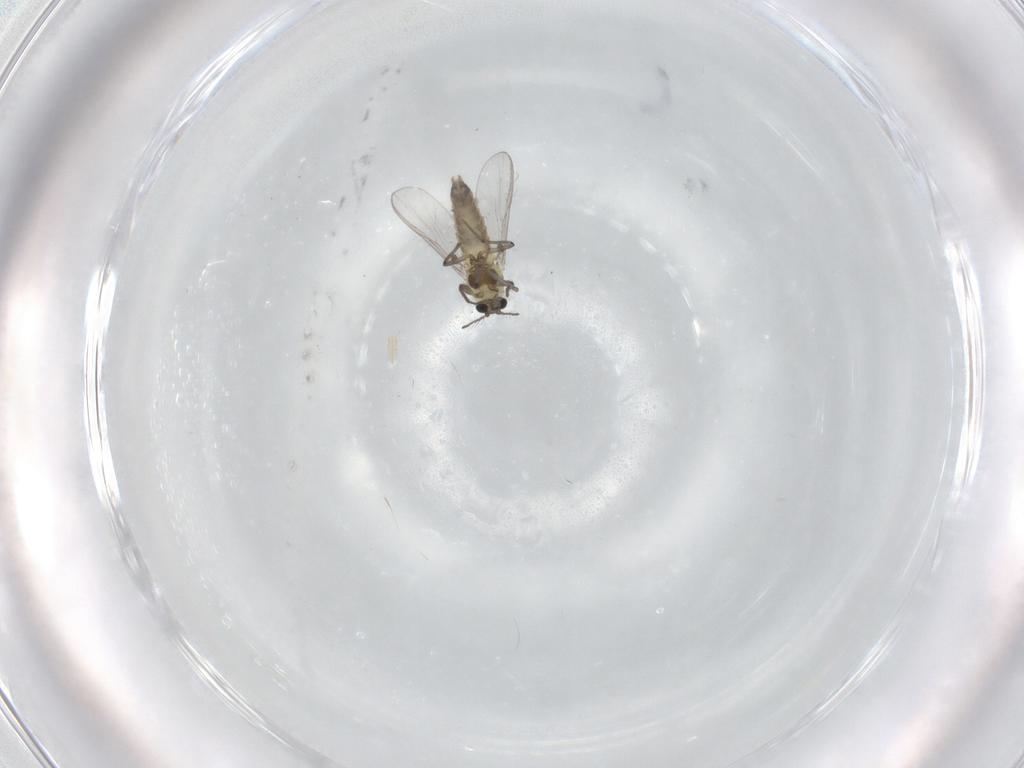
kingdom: Animalia
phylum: Arthropoda
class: Insecta
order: Diptera
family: Chironomidae
